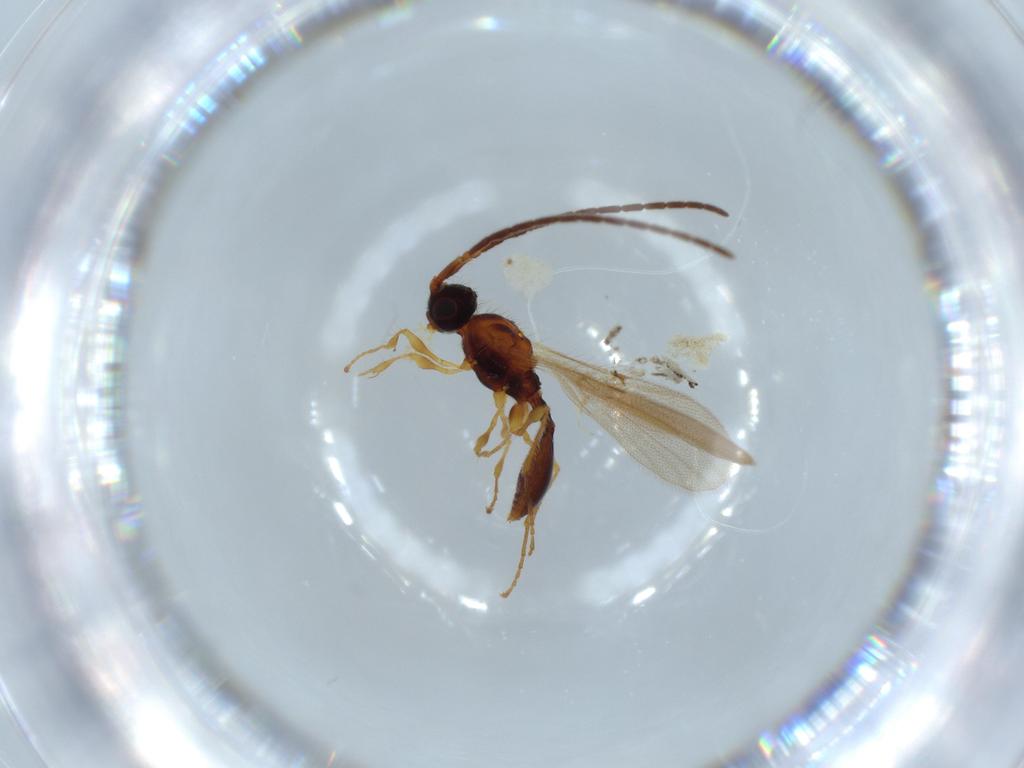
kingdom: Animalia
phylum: Arthropoda
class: Insecta
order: Hymenoptera
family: Diapriidae
